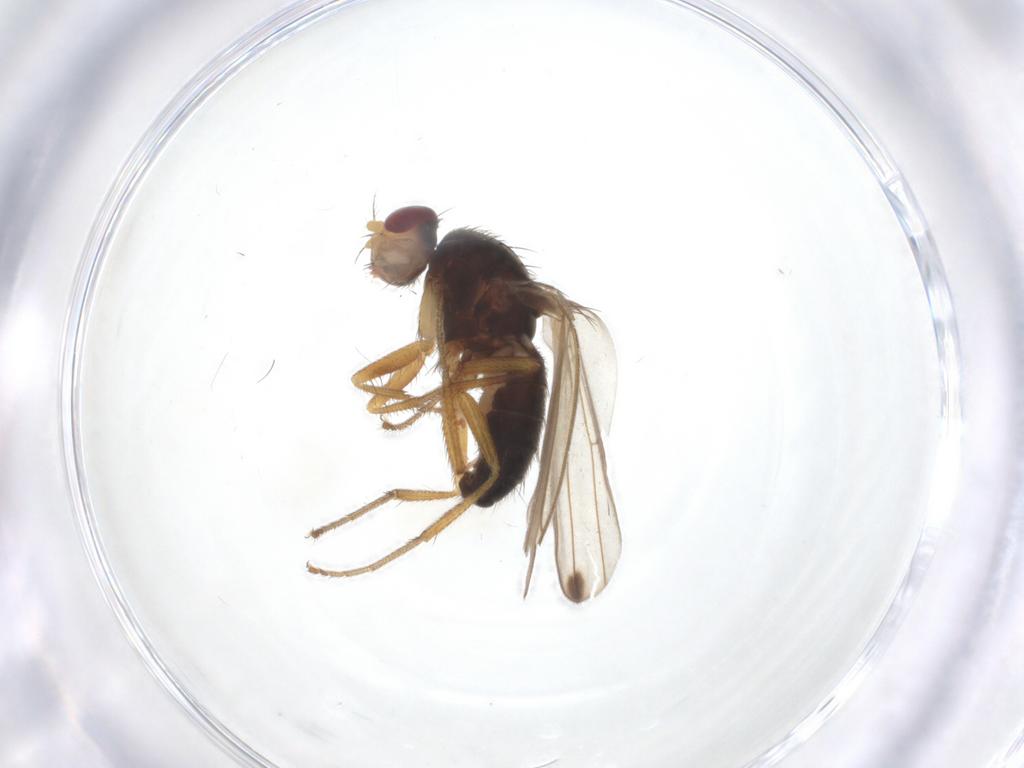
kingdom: Animalia
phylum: Arthropoda
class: Insecta
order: Diptera
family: Drosophilidae
